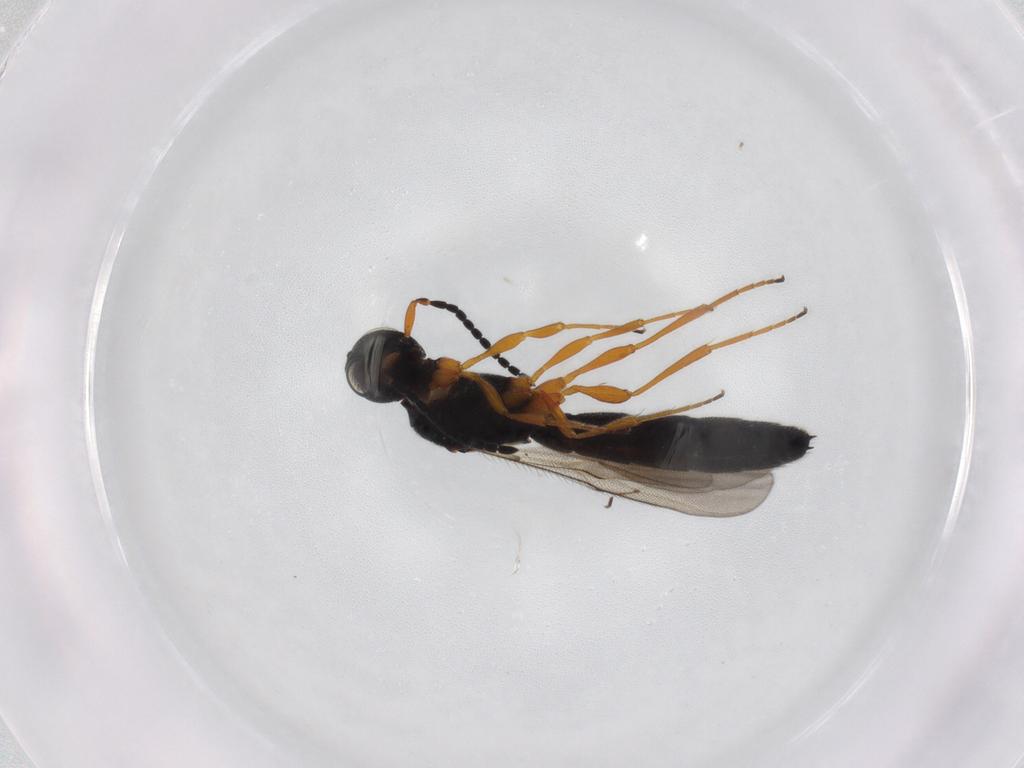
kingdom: Animalia
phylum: Arthropoda
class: Insecta
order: Hymenoptera
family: Scelionidae
